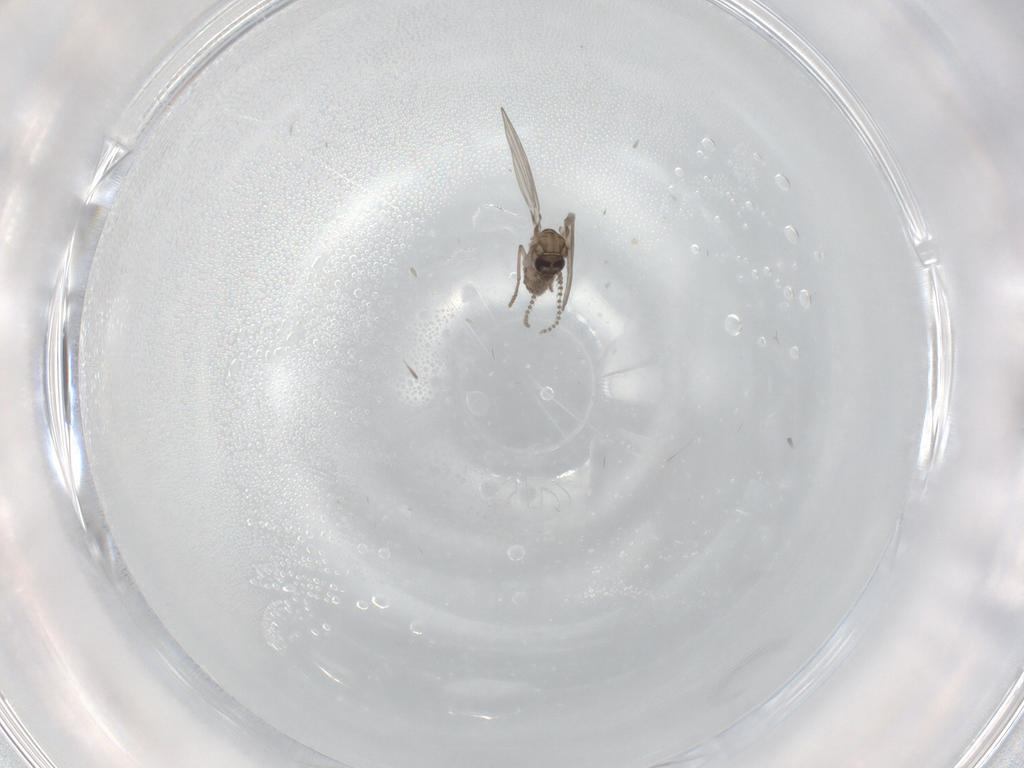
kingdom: Animalia
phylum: Arthropoda
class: Insecta
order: Diptera
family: Psychodidae
